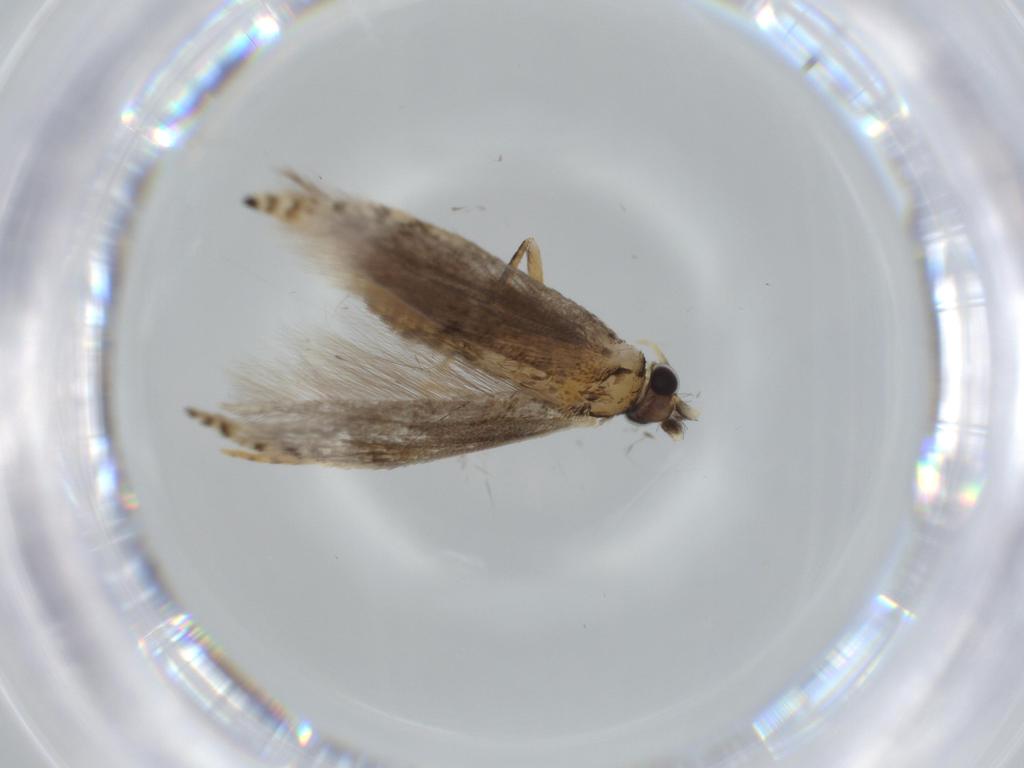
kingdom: Animalia
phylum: Arthropoda
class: Insecta
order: Lepidoptera
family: Tineidae
